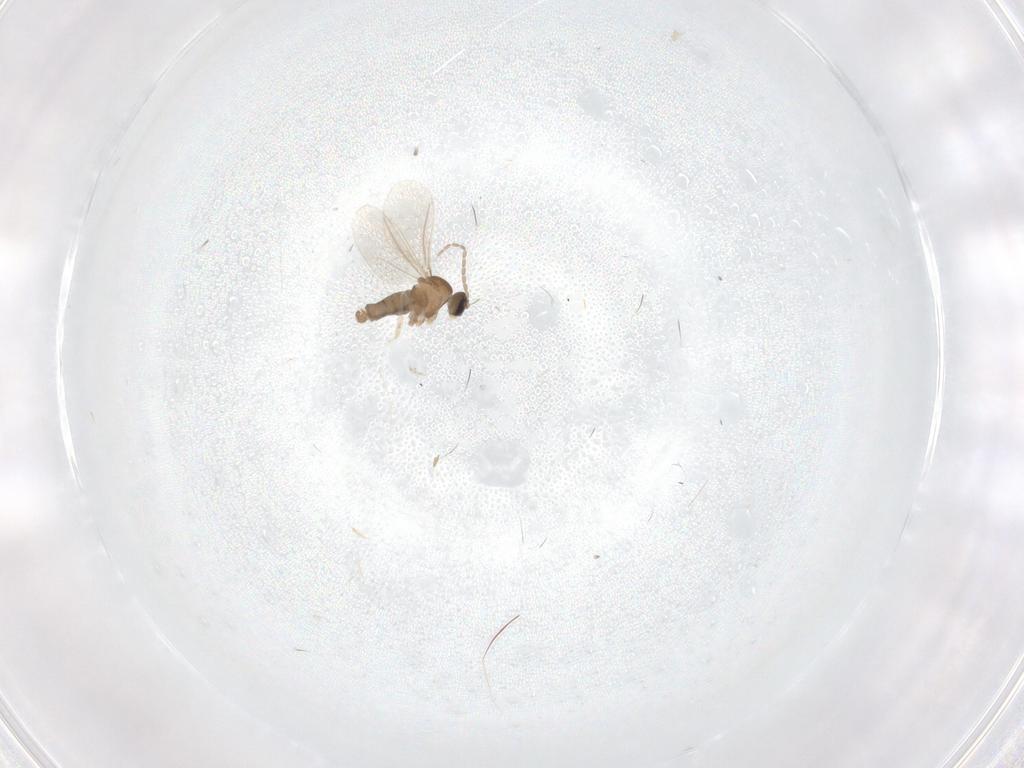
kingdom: Animalia
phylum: Arthropoda
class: Insecta
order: Diptera
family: Cecidomyiidae
